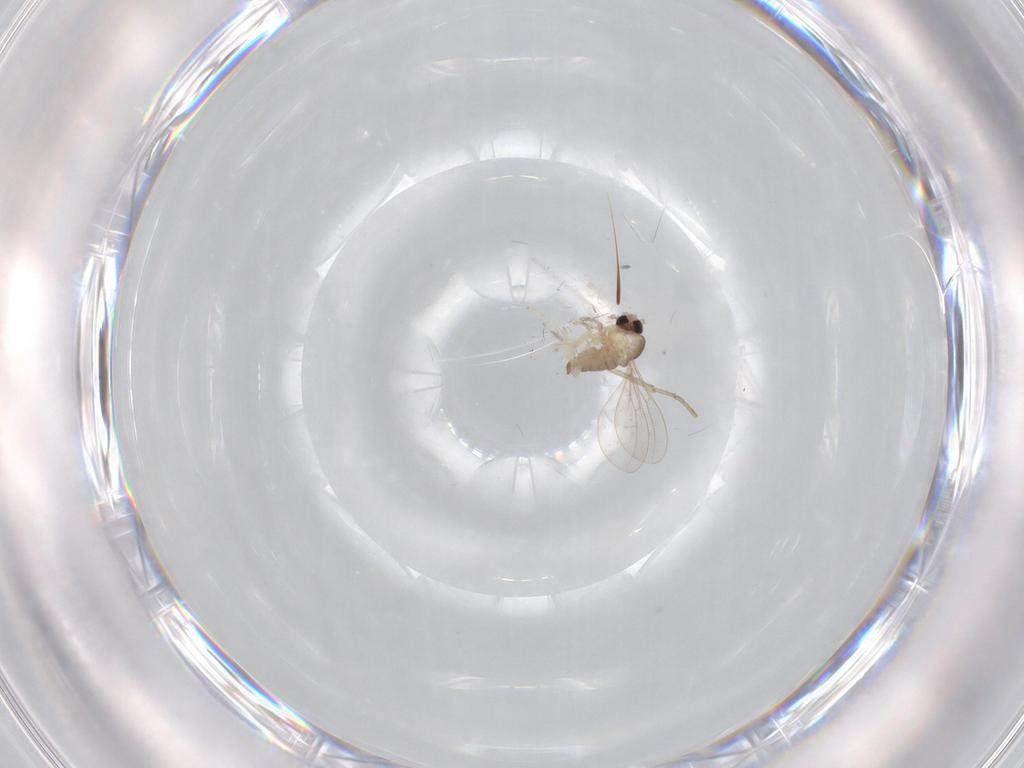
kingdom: Animalia
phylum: Arthropoda
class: Insecta
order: Diptera
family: Cecidomyiidae
